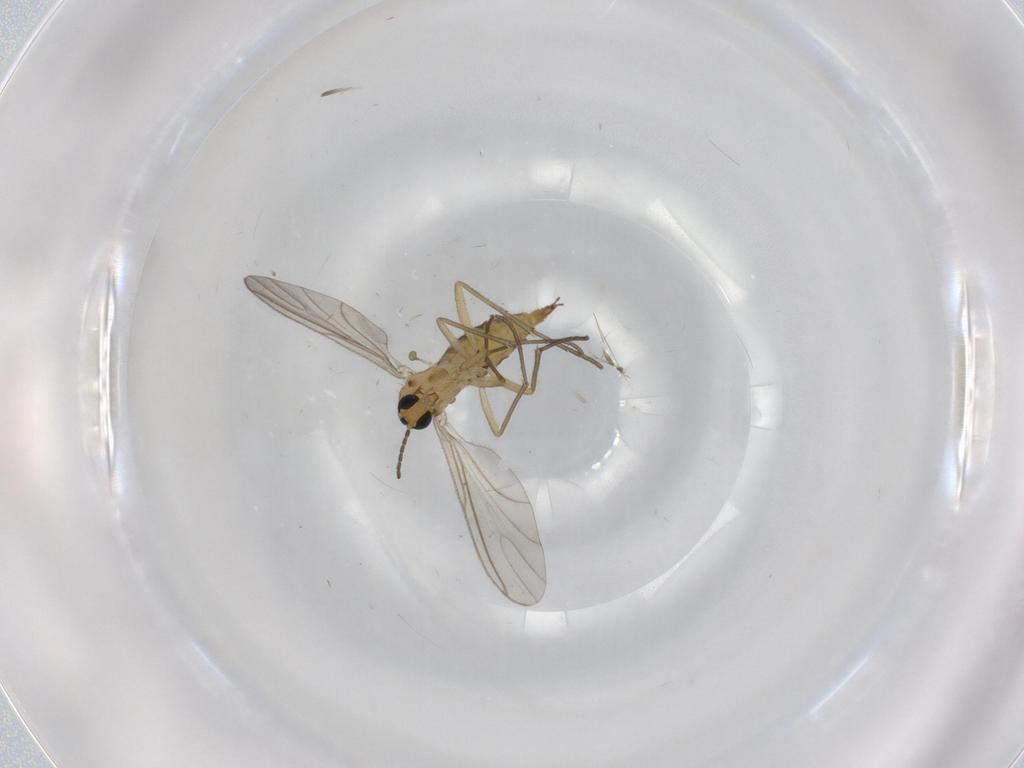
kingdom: Animalia
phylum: Arthropoda
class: Insecta
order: Diptera
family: Sciaridae
